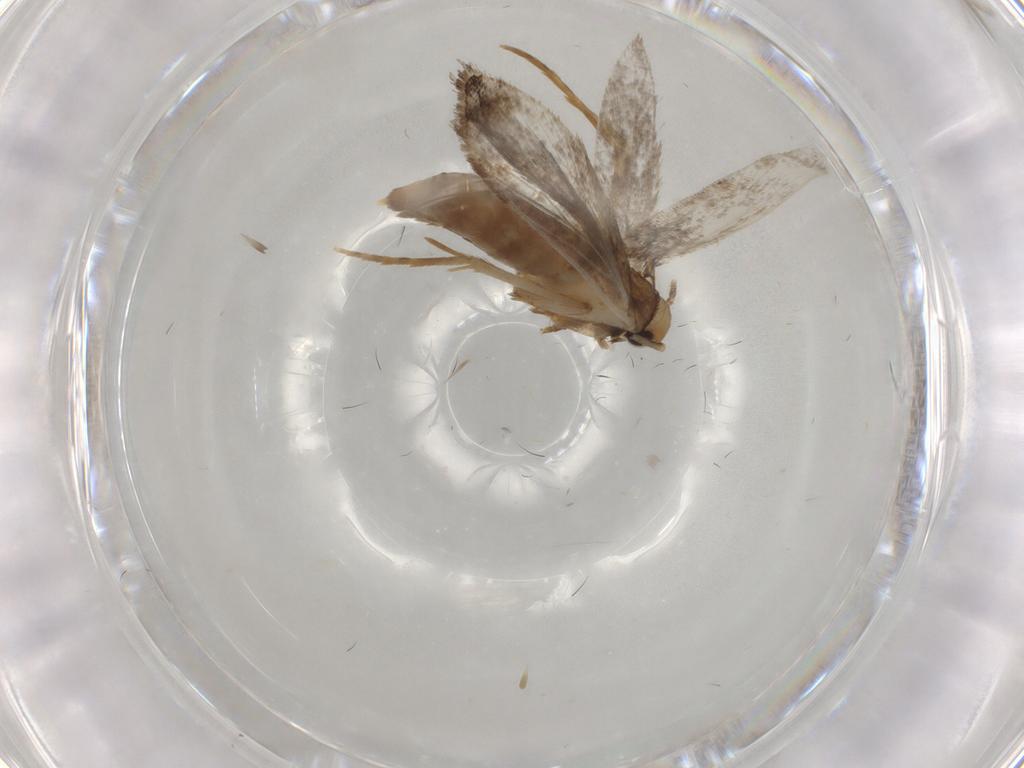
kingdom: Animalia
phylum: Arthropoda
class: Insecta
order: Lepidoptera
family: Tineidae
